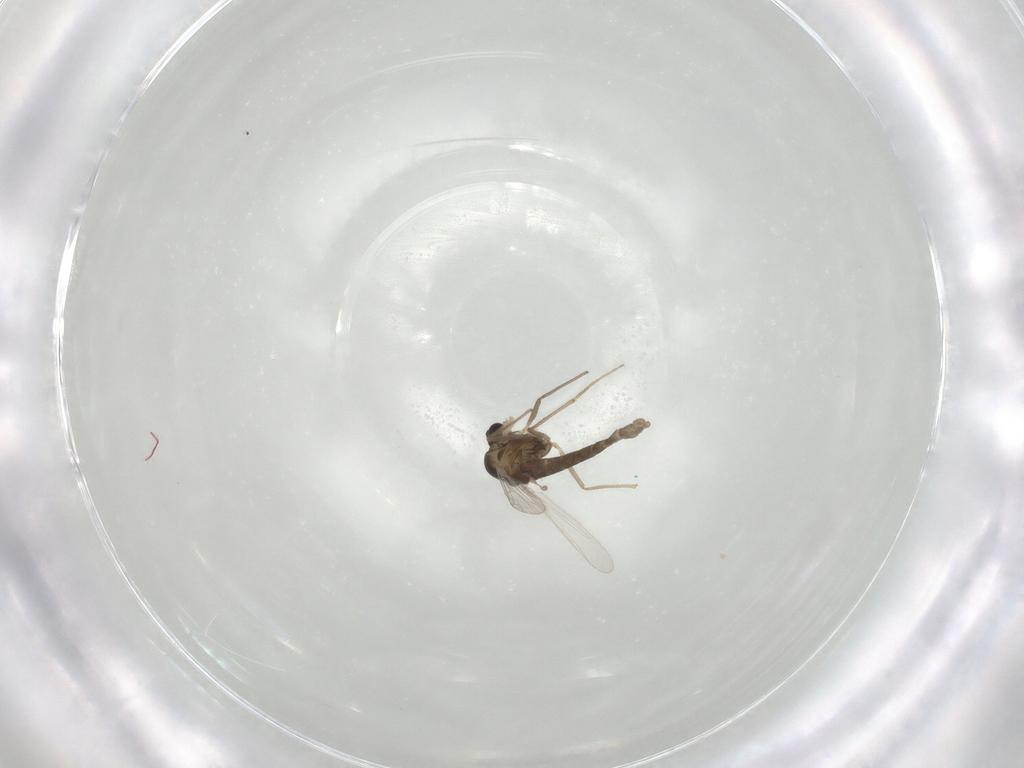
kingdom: Animalia
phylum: Arthropoda
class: Insecta
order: Diptera
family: Chironomidae
